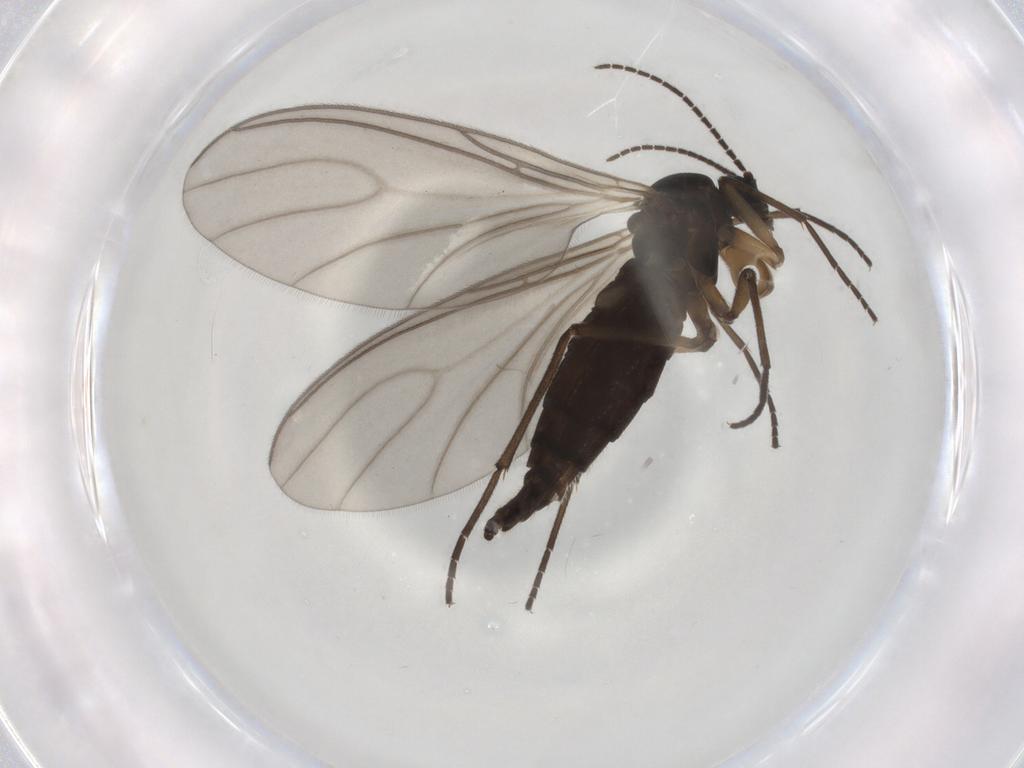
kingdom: Animalia
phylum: Arthropoda
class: Insecta
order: Diptera
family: Sciaridae
